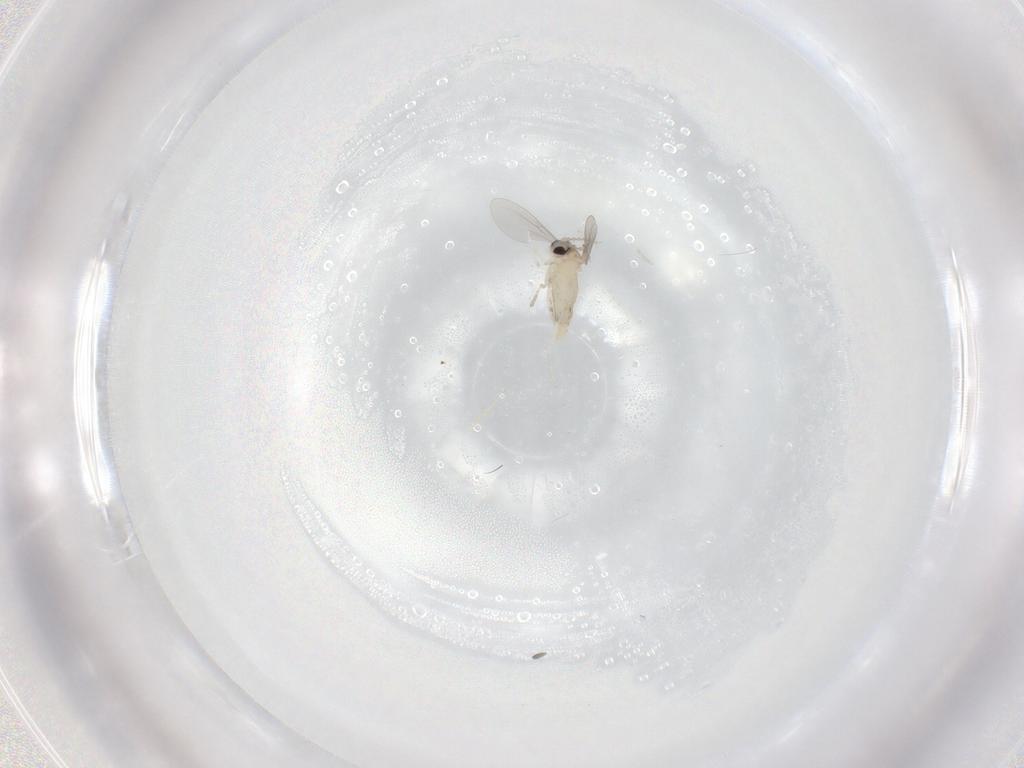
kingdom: Animalia
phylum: Arthropoda
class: Insecta
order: Diptera
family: Cecidomyiidae
